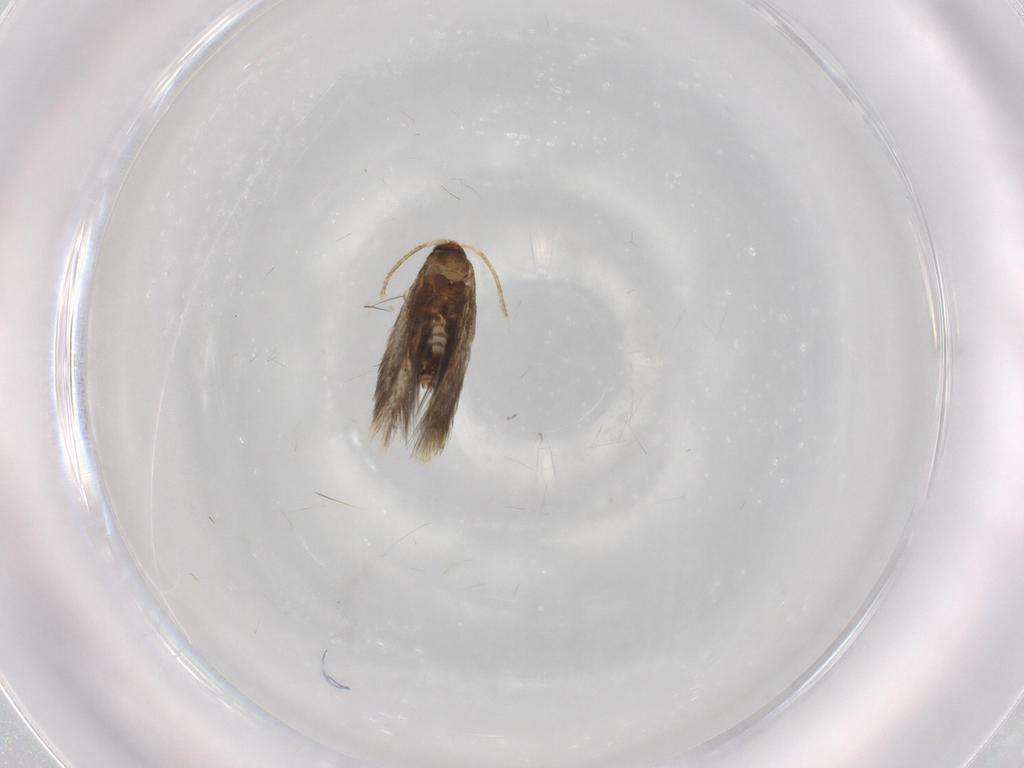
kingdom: Animalia
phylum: Arthropoda
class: Insecta
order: Lepidoptera
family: Copromorphidae
